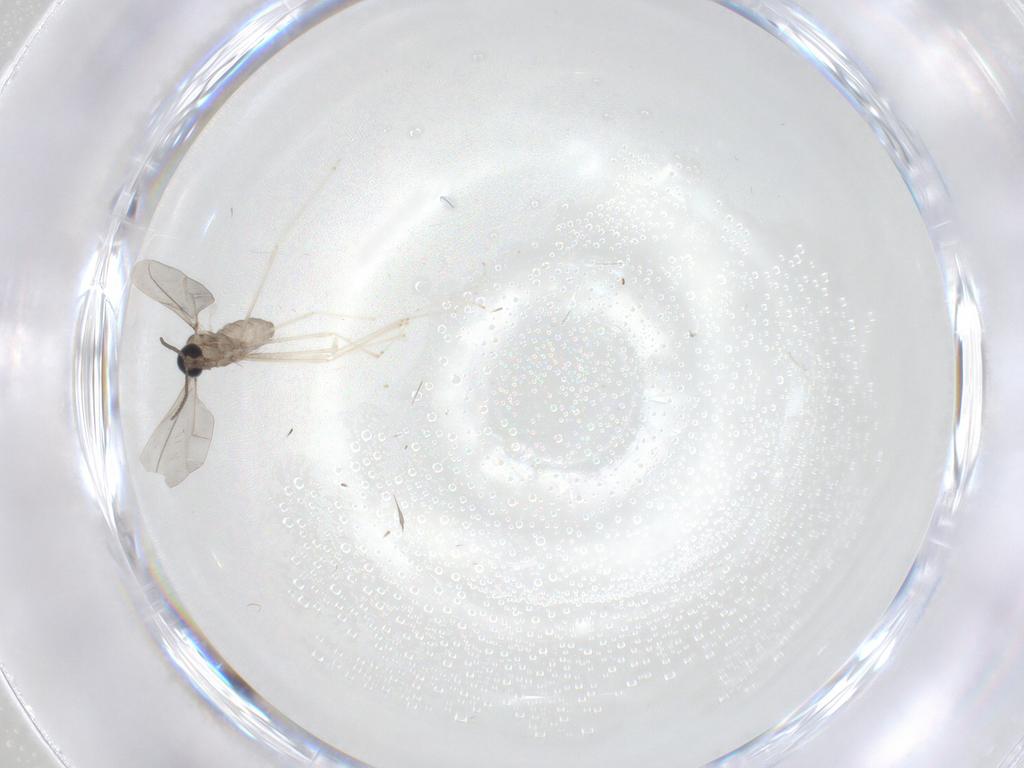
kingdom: Animalia
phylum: Arthropoda
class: Insecta
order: Diptera
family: Cecidomyiidae
